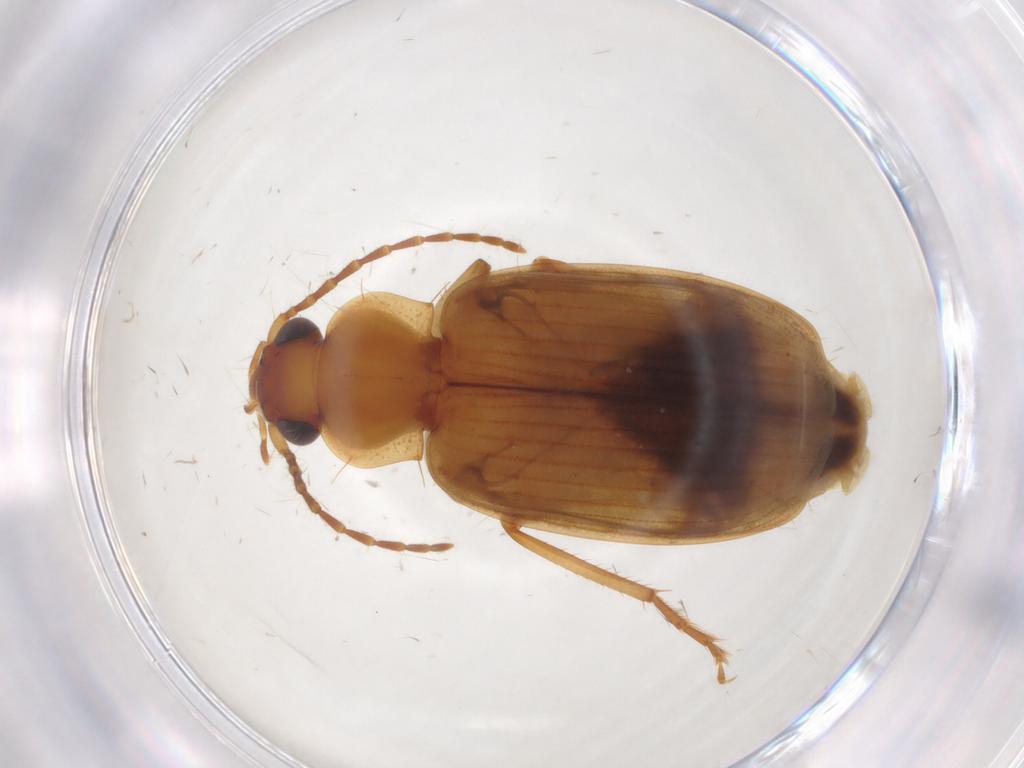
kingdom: Animalia
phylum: Arthropoda
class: Insecta
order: Coleoptera
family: Carabidae
